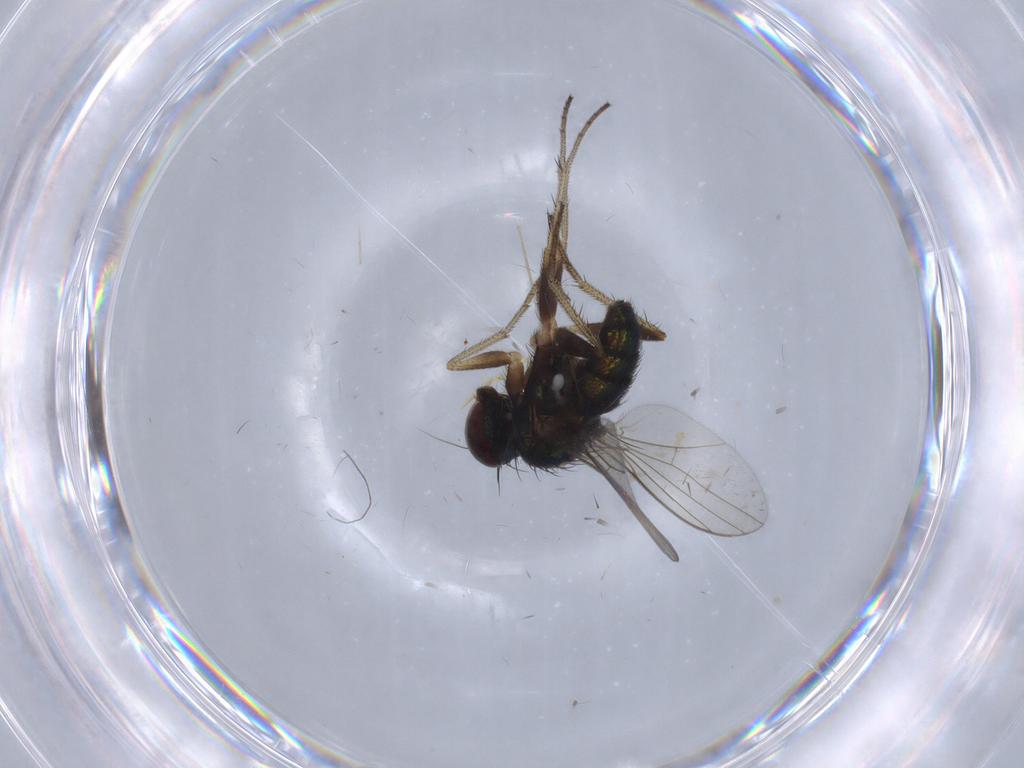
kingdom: Animalia
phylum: Arthropoda
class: Insecta
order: Diptera
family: Dolichopodidae
